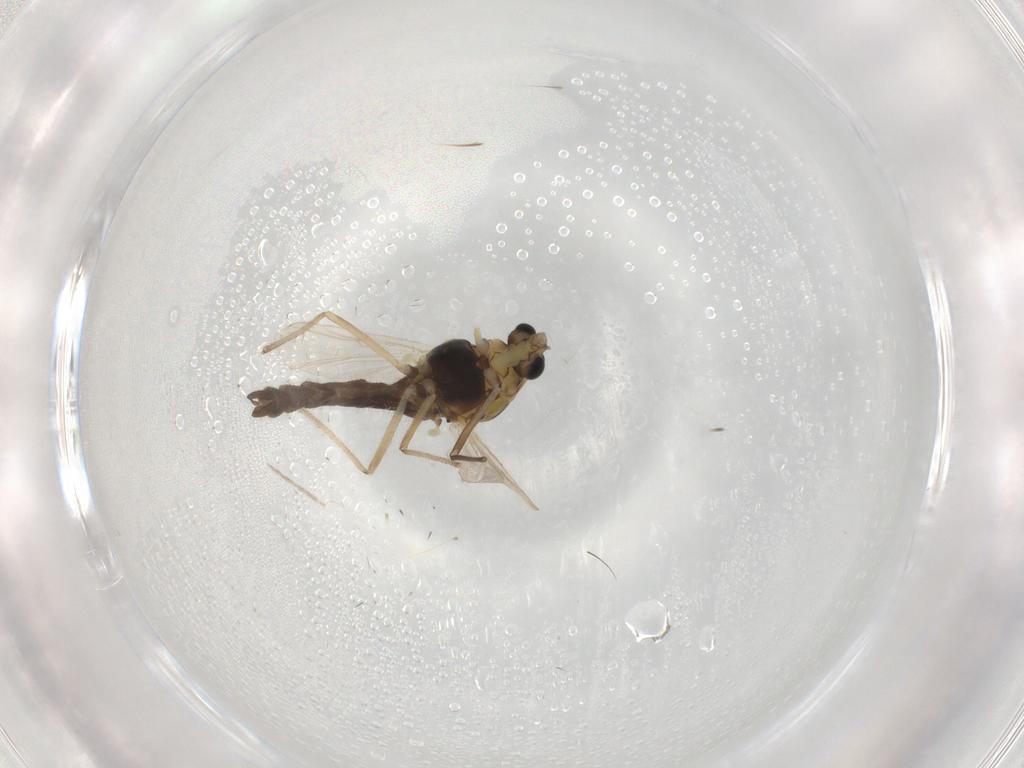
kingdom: Animalia
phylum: Arthropoda
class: Insecta
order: Diptera
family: Chironomidae
